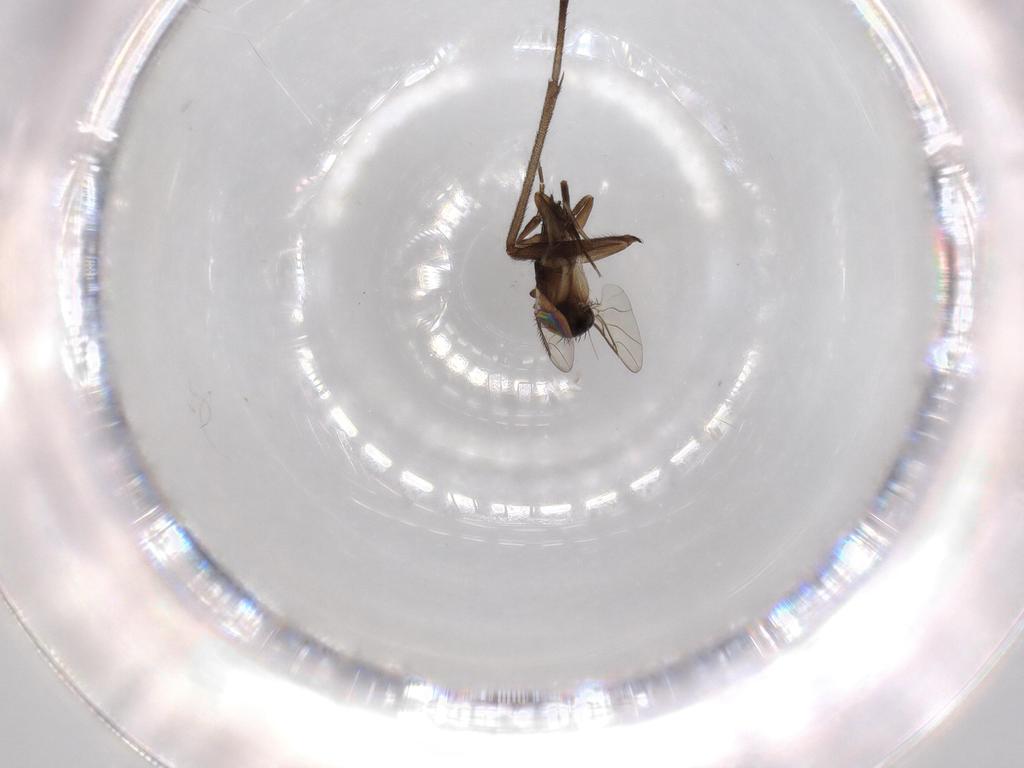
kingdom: Animalia
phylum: Arthropoda
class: Insecta
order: Diptera
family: Phoridae
